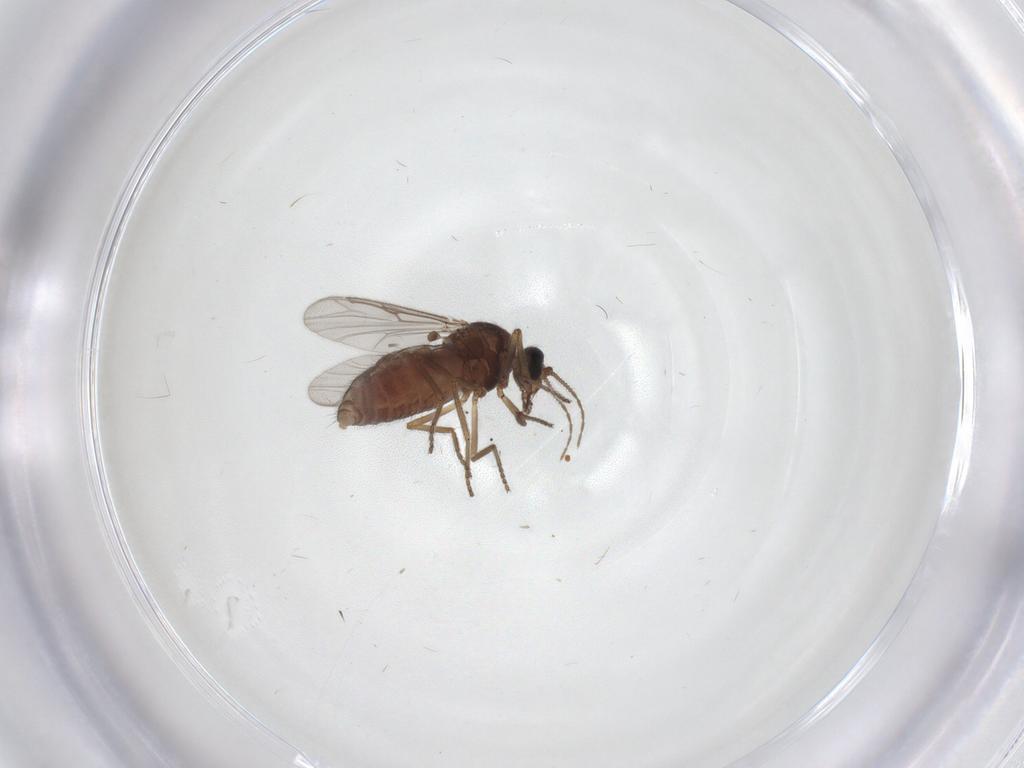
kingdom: Animalia
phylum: Arthropoda
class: Insecta
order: Diptera
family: Ceratopogonidae
